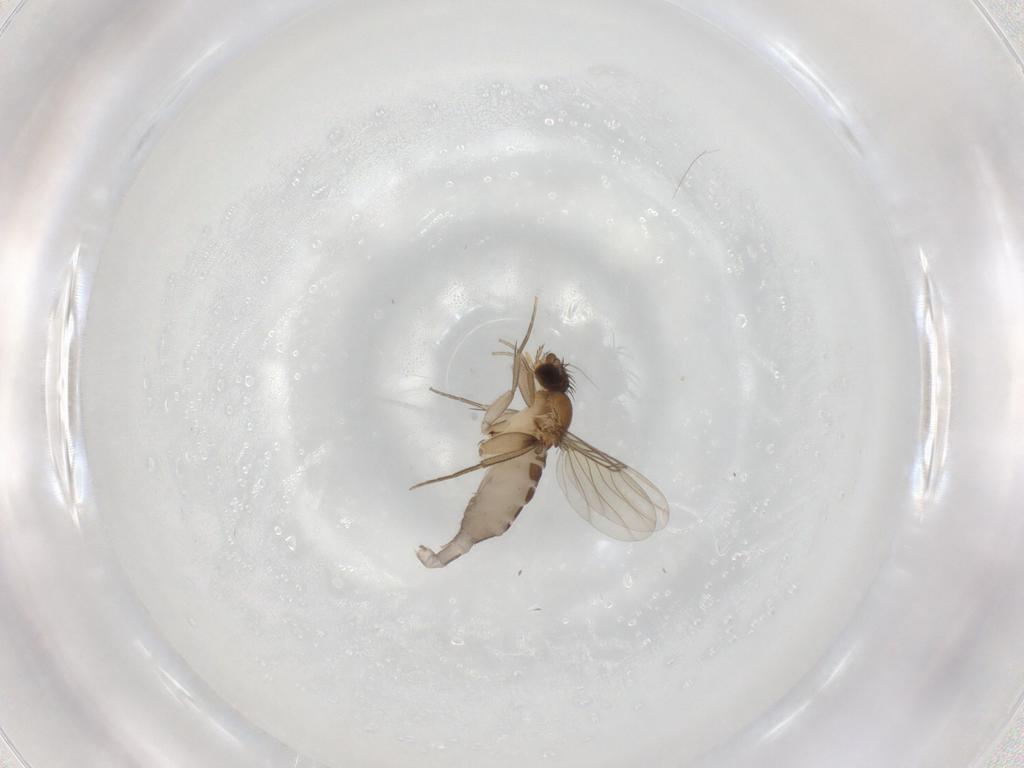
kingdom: Animalia
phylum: Arthropoda
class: Insecta
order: Diptera
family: Phoridae
